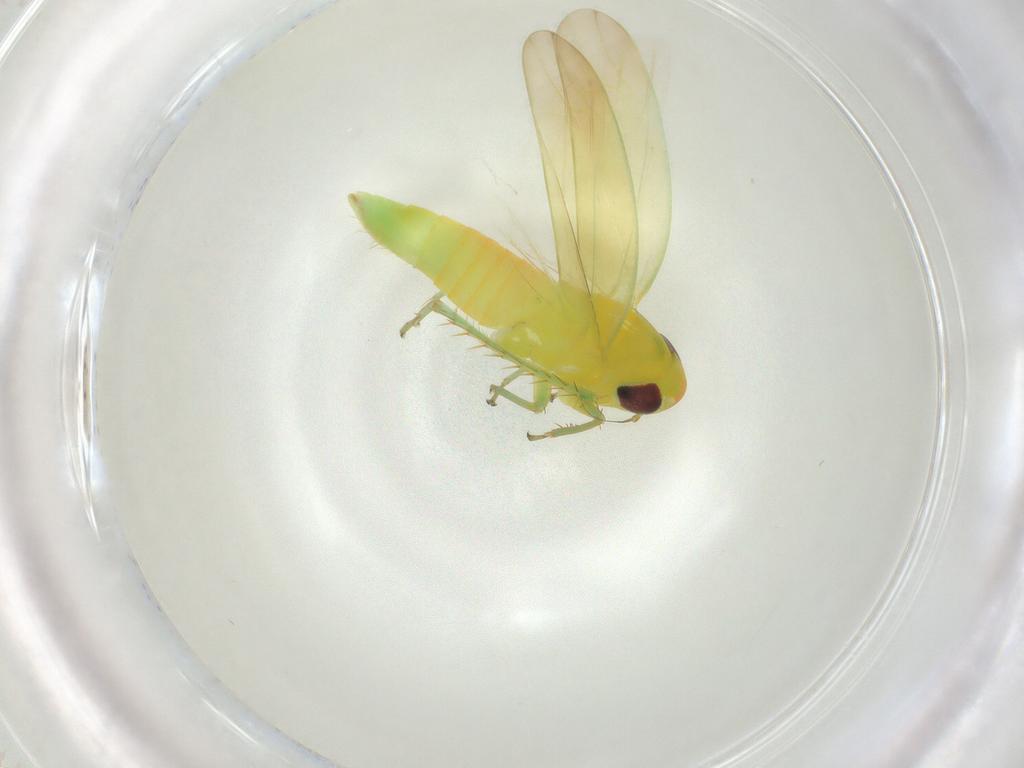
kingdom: Animalia
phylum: Arthropoda
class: Insecta
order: Hemiptera
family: Cicadellidae
